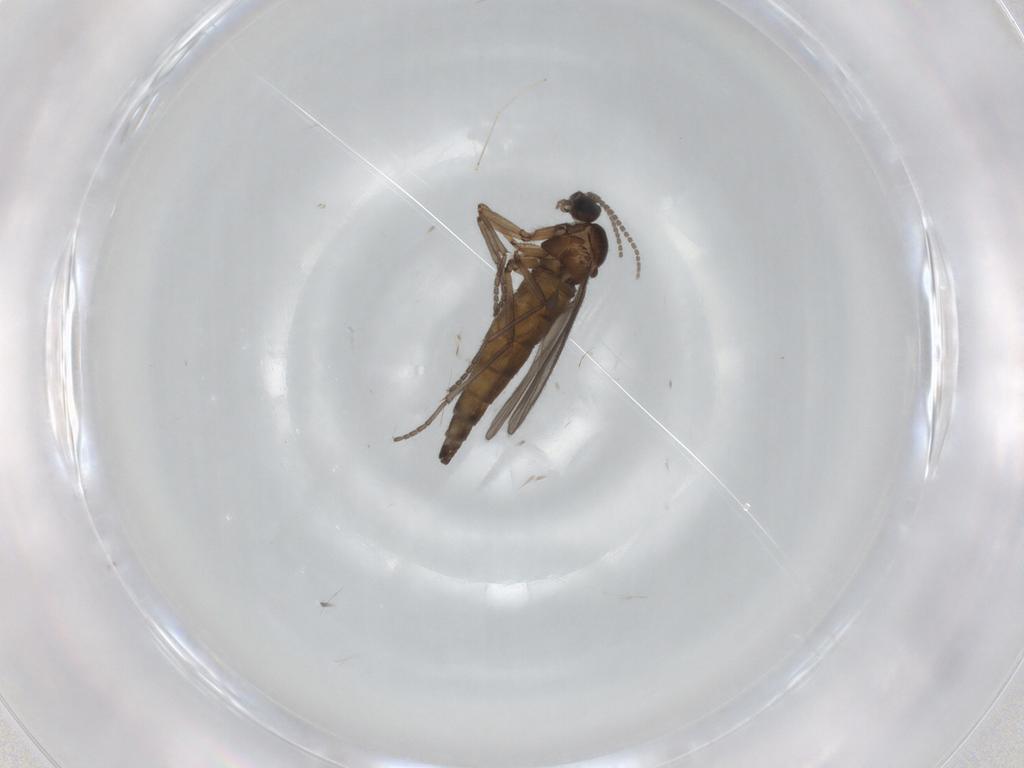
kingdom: Animalia
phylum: Arthropoda
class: Insecta
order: Diptera
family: Sciaridae
